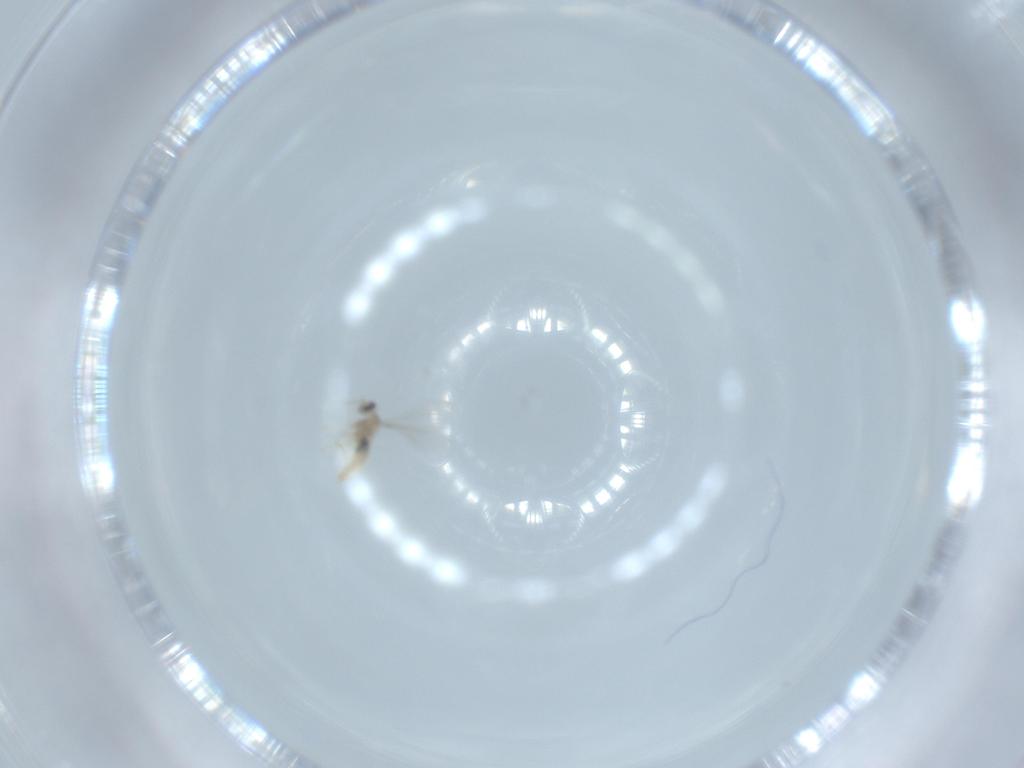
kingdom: Animalia
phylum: Arthropoda
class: Insecta
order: Diptera
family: Cecidomyiidae
